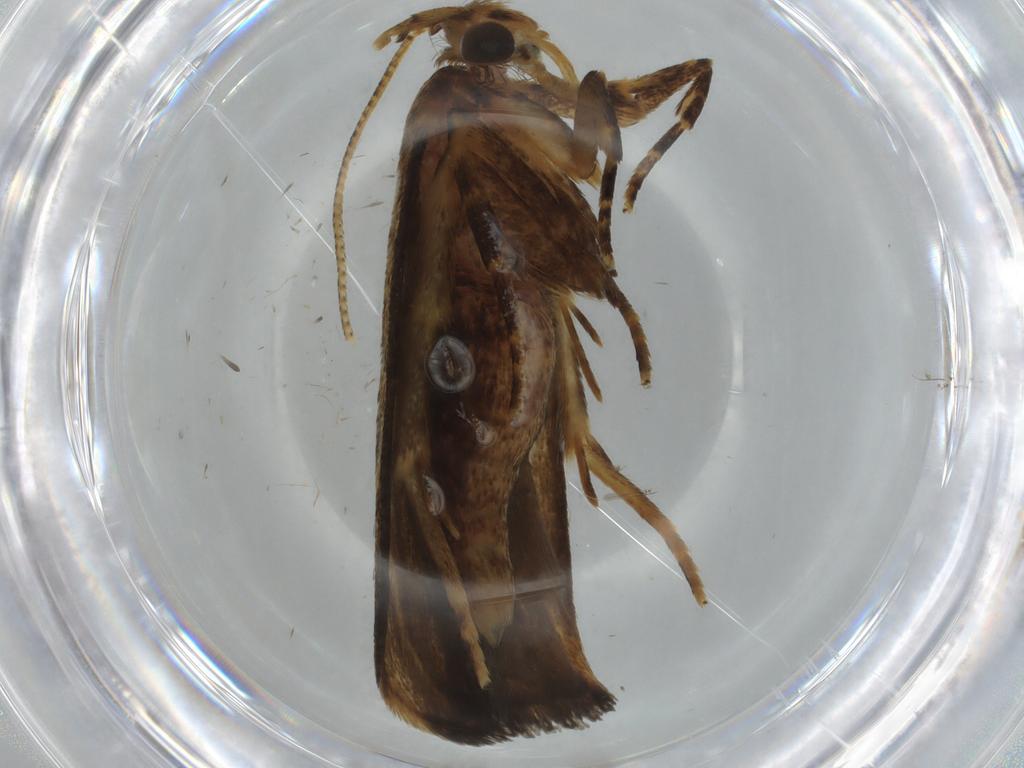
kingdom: Animalia
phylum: Arthropoda
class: Insecta
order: Lepidoptera
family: Autostichidae
